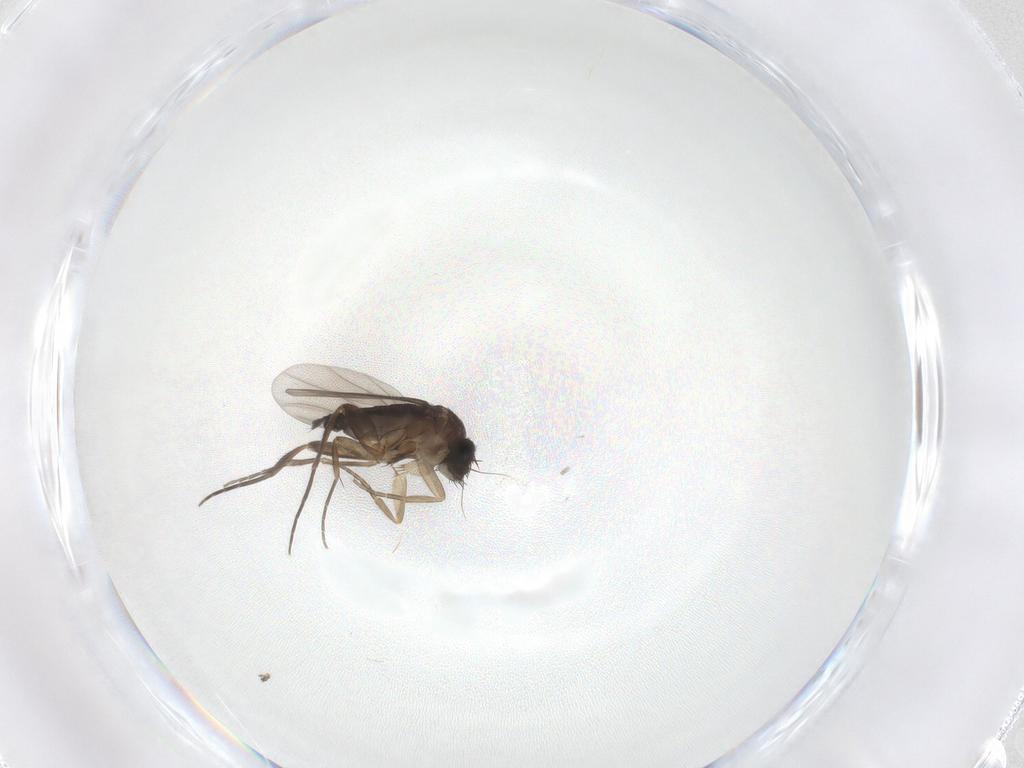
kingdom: Animalia
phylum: Arthropoda
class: Insecta
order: Diptera
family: Phoridae
